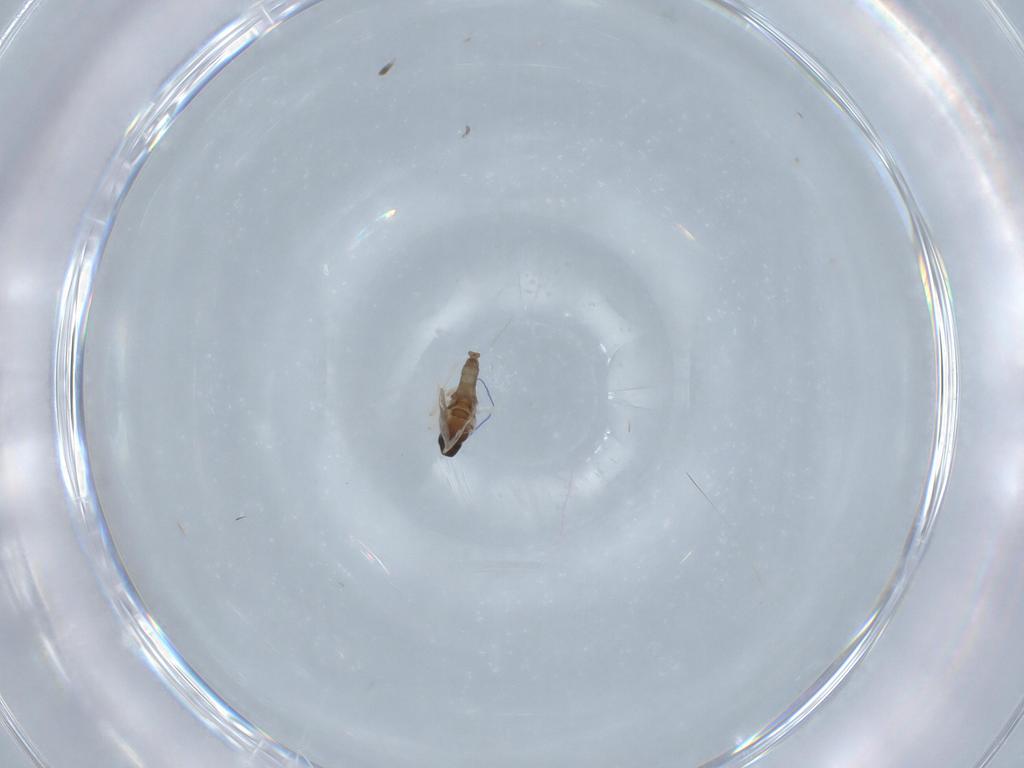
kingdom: Animalia
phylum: Arthropoda
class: Insecta
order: Diptera
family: Cecidomyiidae
